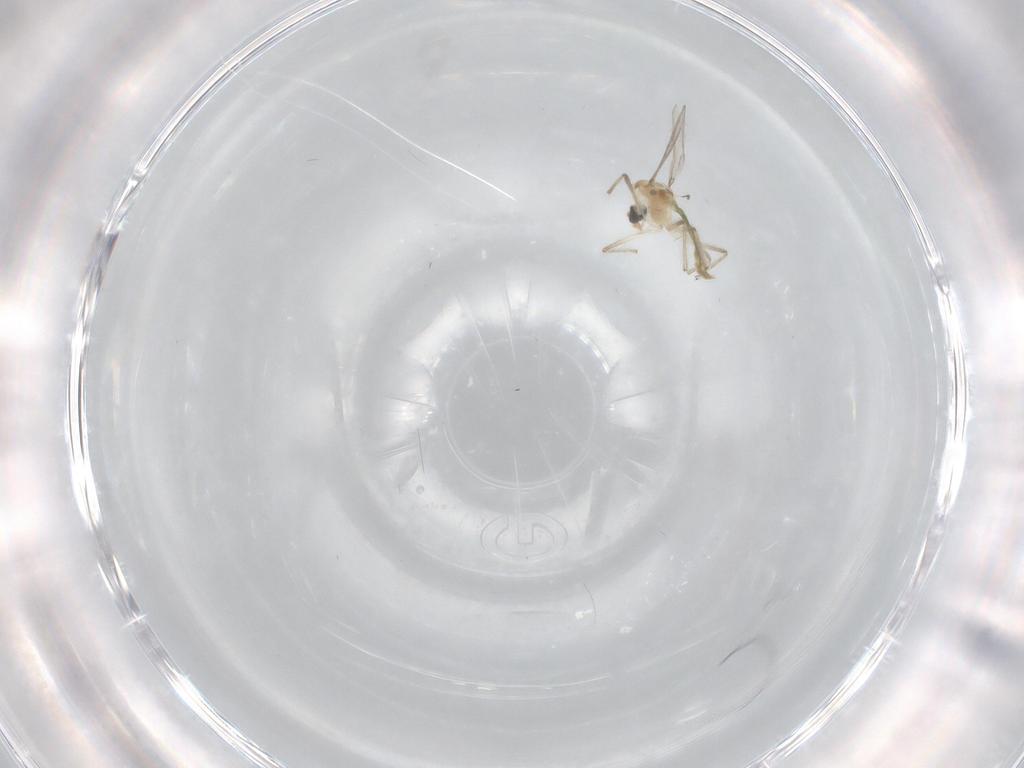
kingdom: Animalia
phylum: Arthropoda
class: Insecta
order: Diptera
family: Chironomidae
